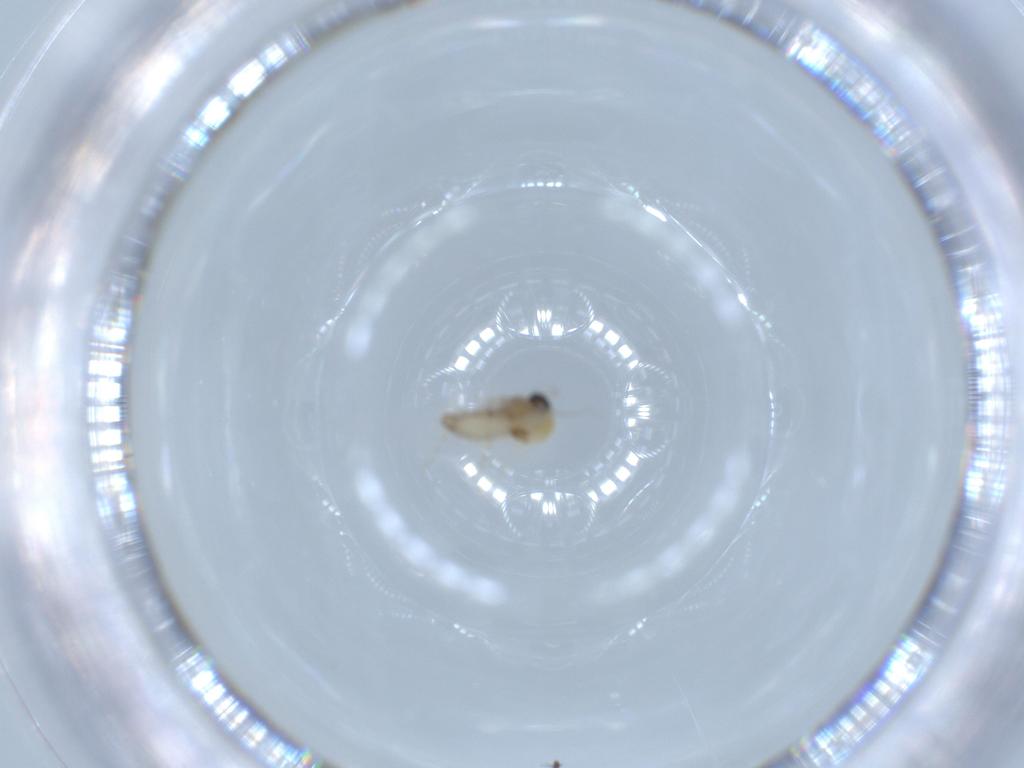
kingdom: Animalia
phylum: Arthropoda
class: Insecta
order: Diptera
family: Ceratopogonidae
